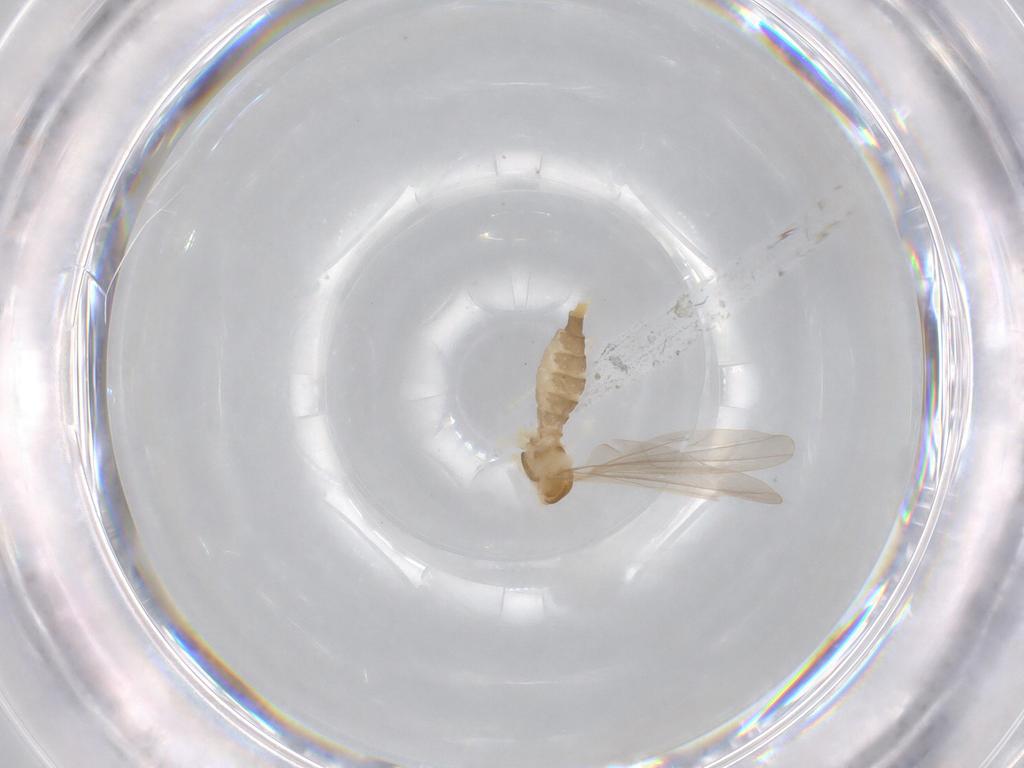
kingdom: Animalia
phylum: Arthropoda
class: Insecta
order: Diptera
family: Cecidomyiidae
